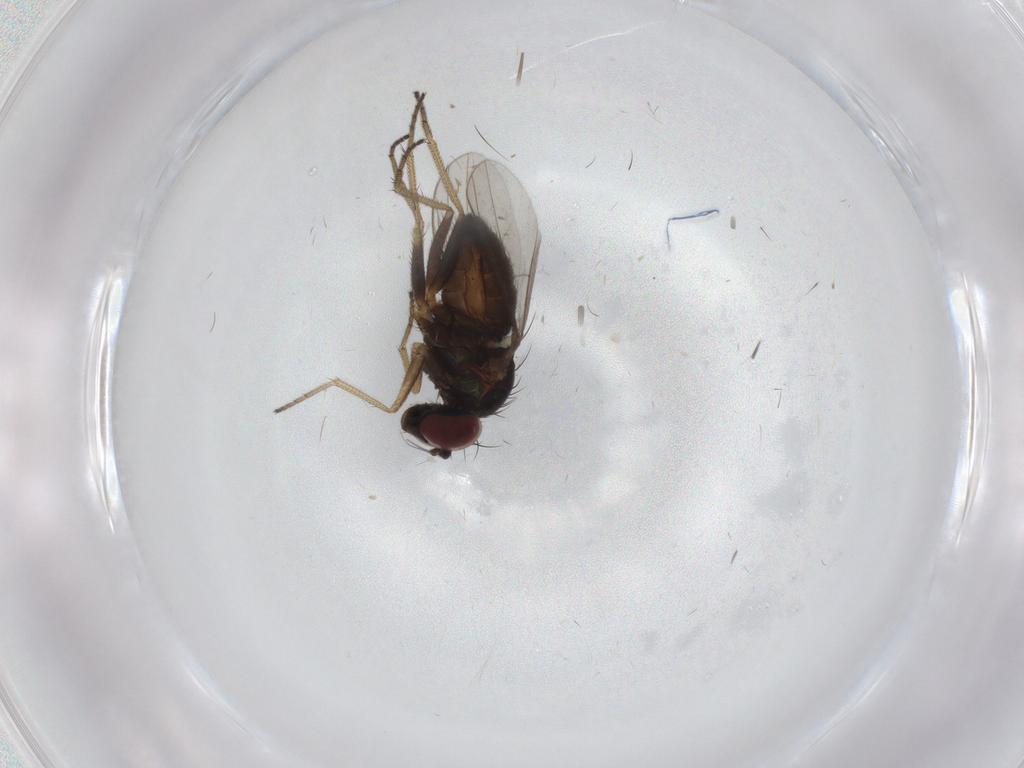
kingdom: Animalia
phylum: Arthropoda
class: Insecta
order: Diptera
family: Dolichopodidae
